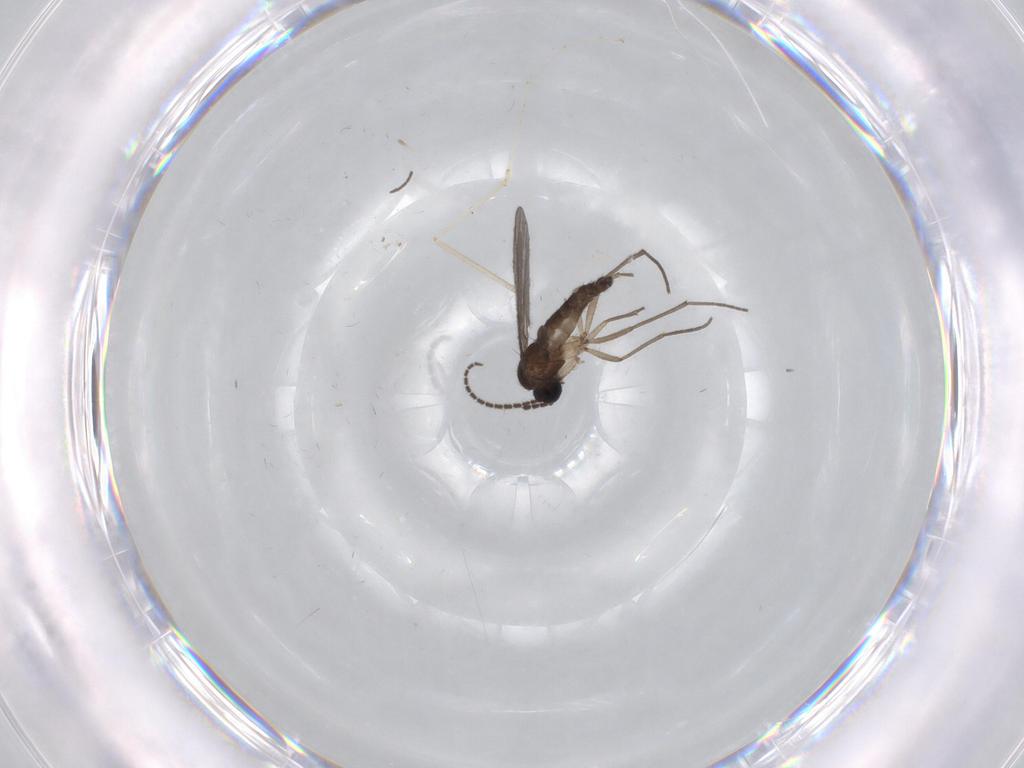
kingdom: Animalia
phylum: Arthropoda
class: Insecta
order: Diptera
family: Sciaridae
